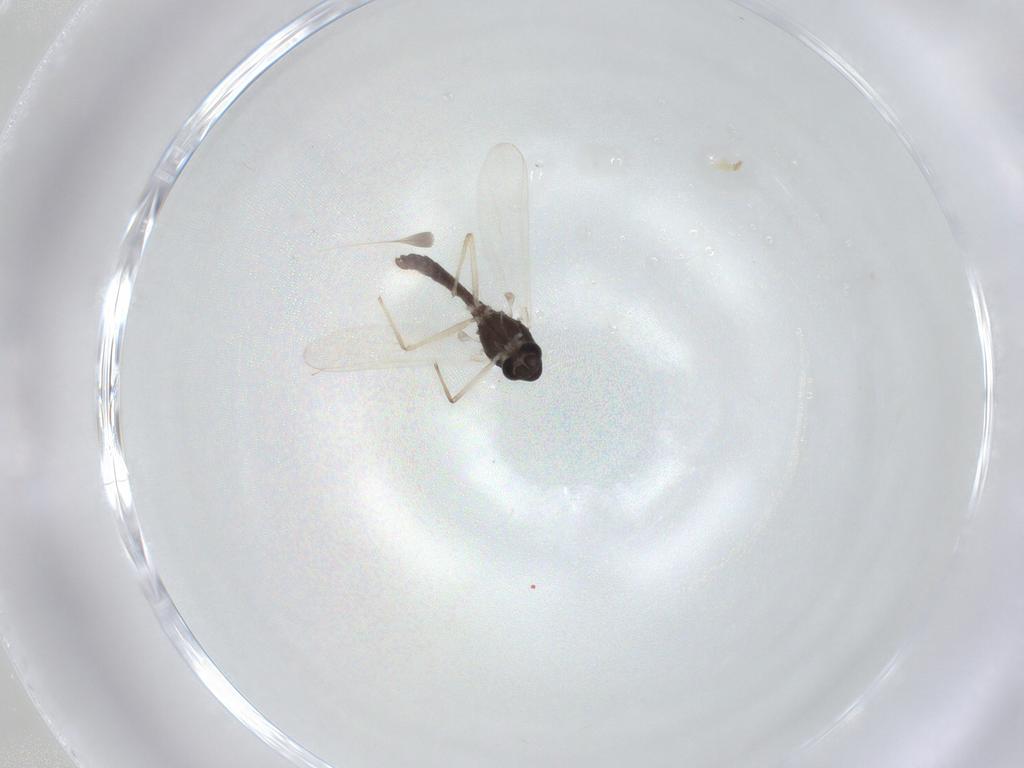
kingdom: Animalia
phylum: Arthropoda
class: Insecta
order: Diptera
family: Chironomidae
